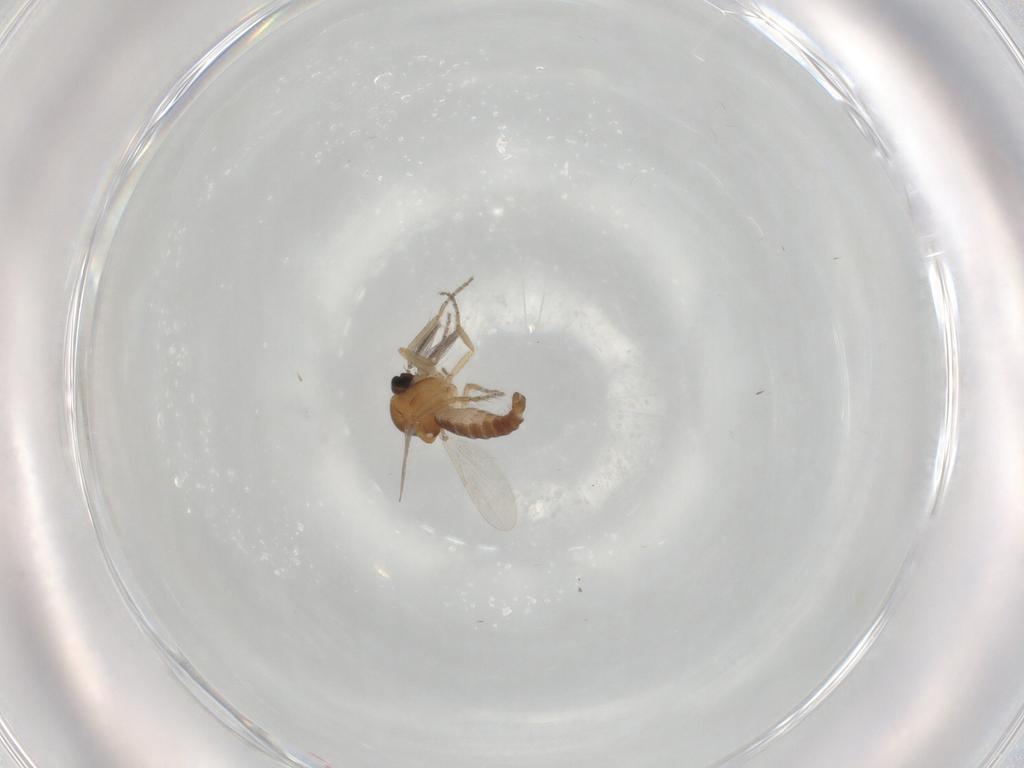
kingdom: Animalia
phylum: Arthropoda
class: Insecta
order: Diptera
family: Ceratopogonidae
